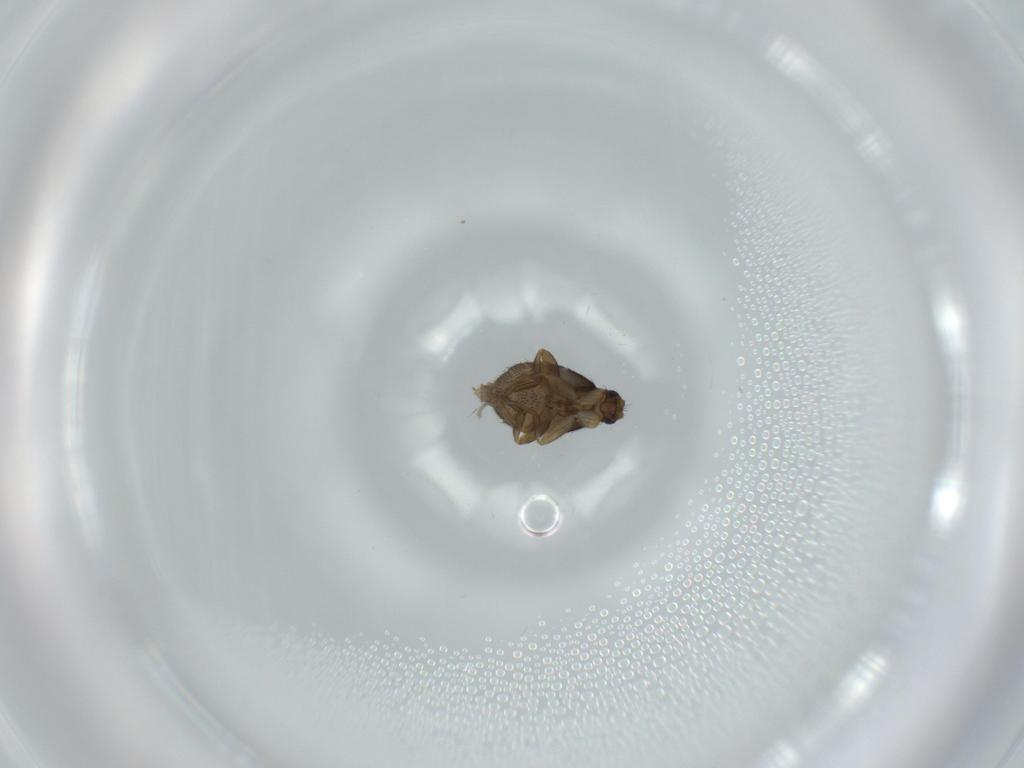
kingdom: Animalia
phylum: Arthropoda
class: Insecta
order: Diptera
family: Phoridae
